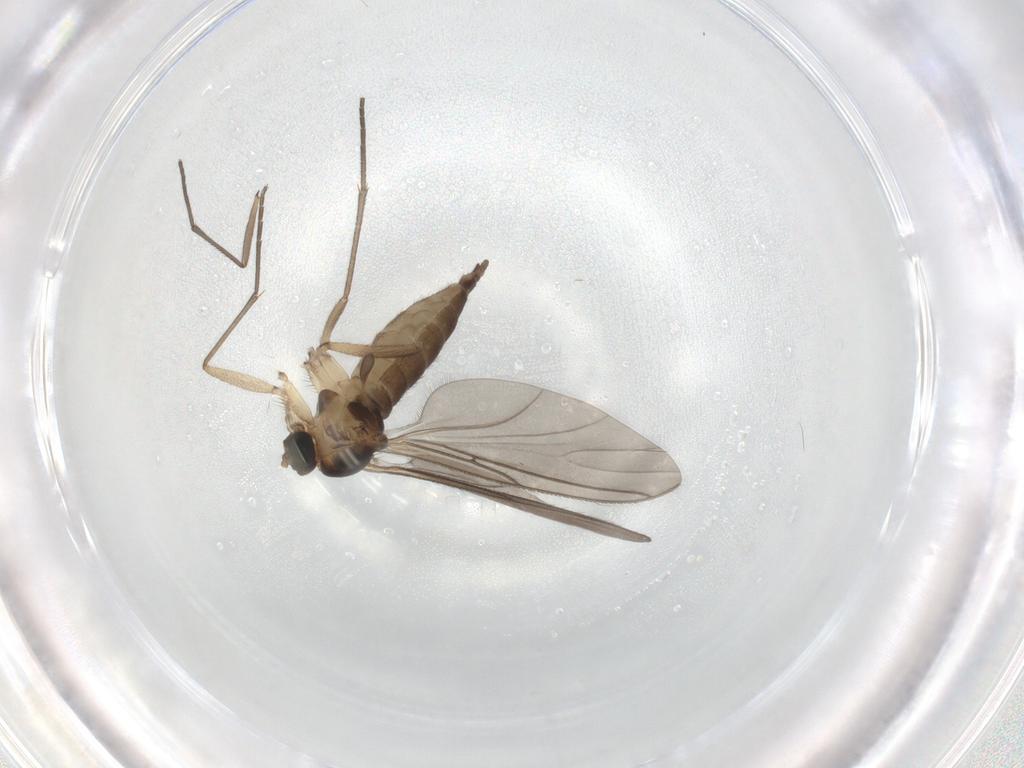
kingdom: Animalia
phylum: Arthropoda
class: Insecta
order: Diptera
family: Sciaridae
